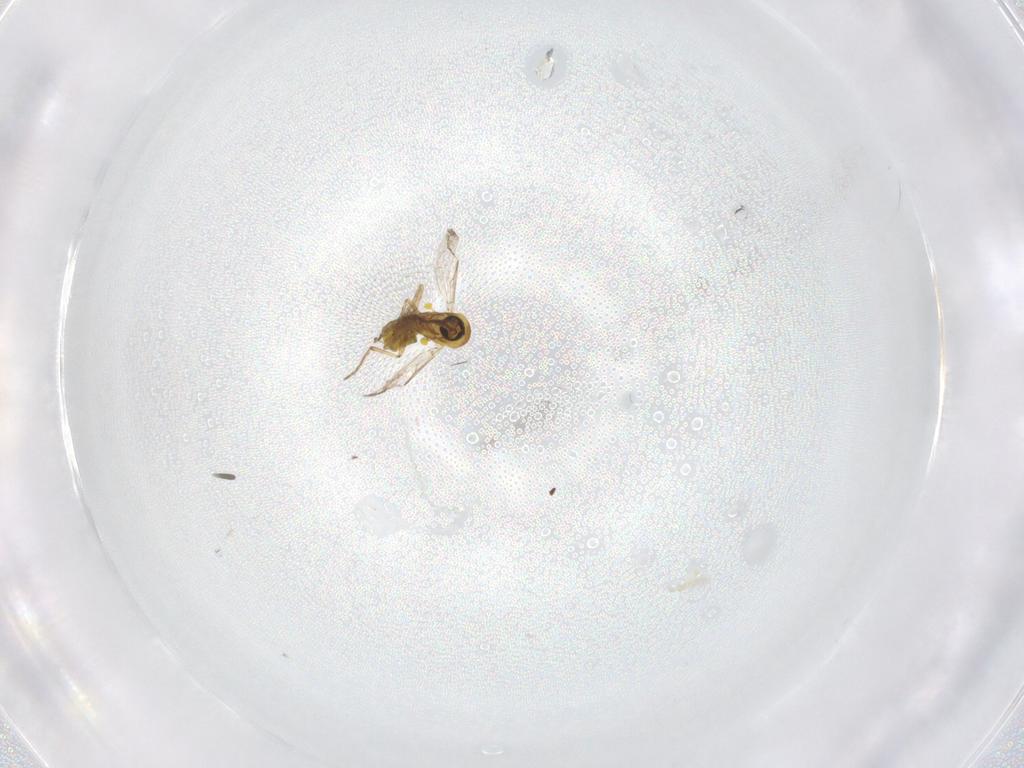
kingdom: Animalia
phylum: Arthropoda
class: Insecta
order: Diptera
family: Ceratopogonidae
